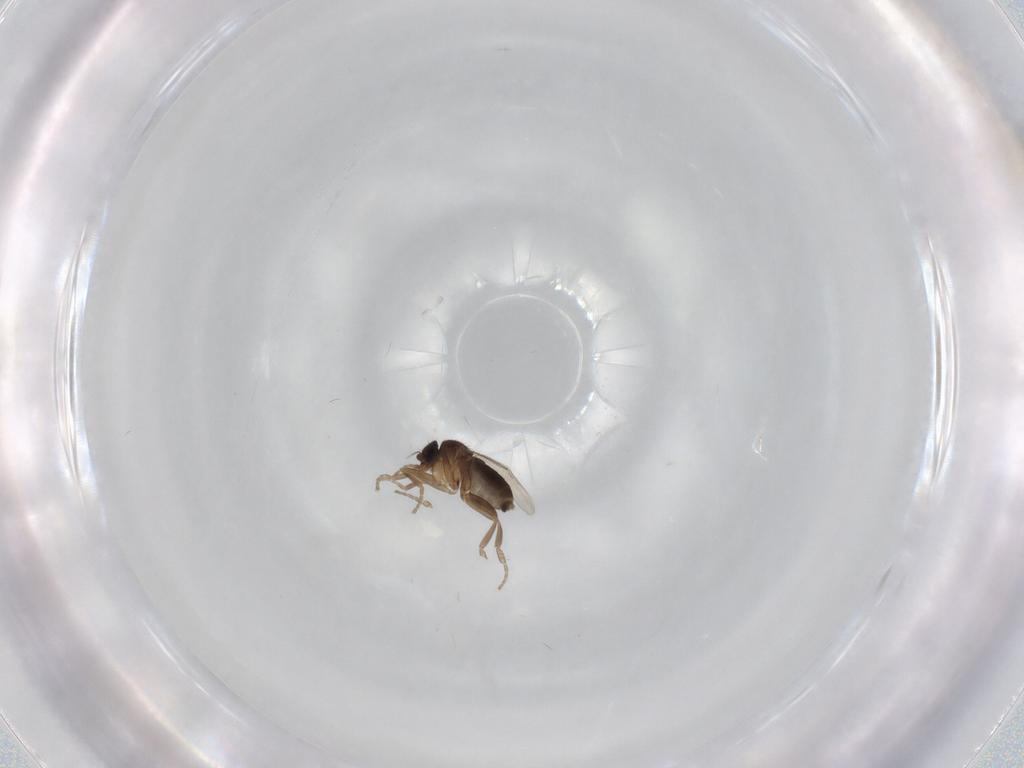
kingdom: Animalia
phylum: Arthropoda
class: Insecta
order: Diptera
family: Phoridae
